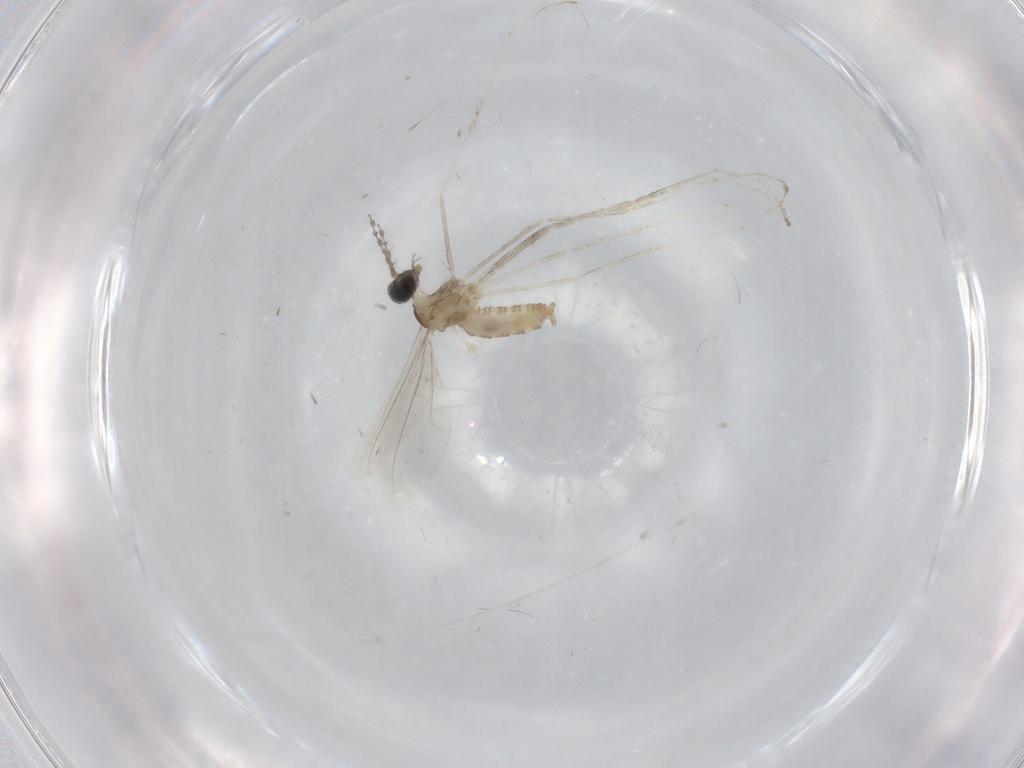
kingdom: Animalia
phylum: Arthropoda
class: Insecta
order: Diptera
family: Cecidomyiidae
